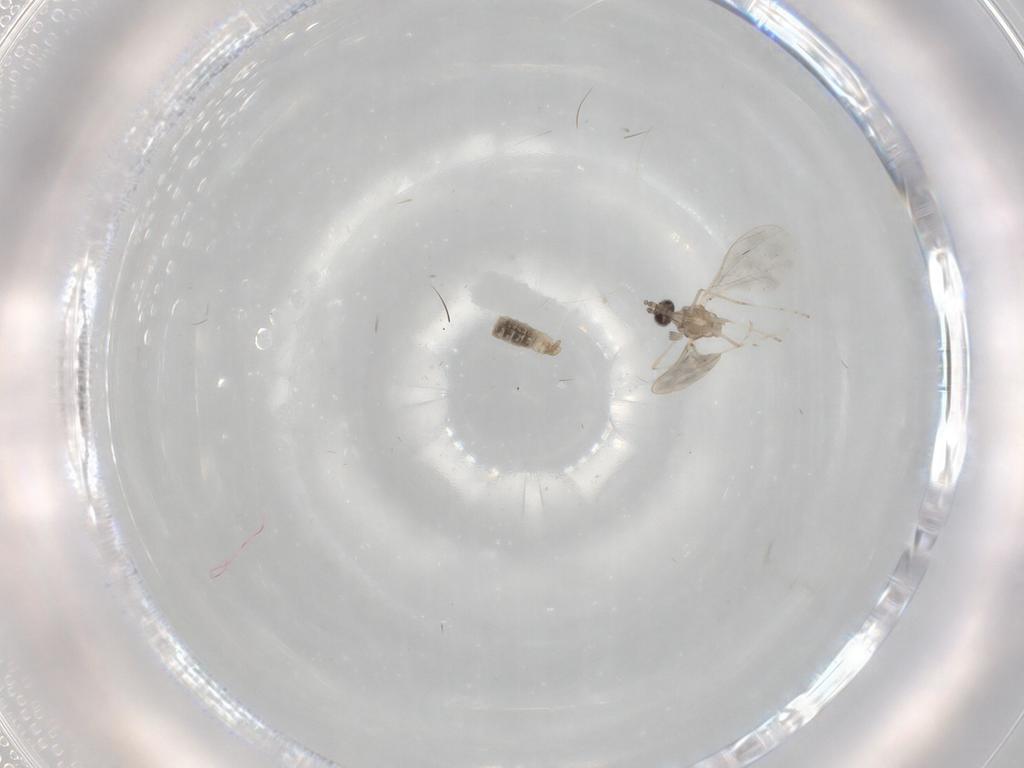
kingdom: Animalia
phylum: Arthropoda
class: Insecta
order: Diptera
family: Cecidomyiidae
